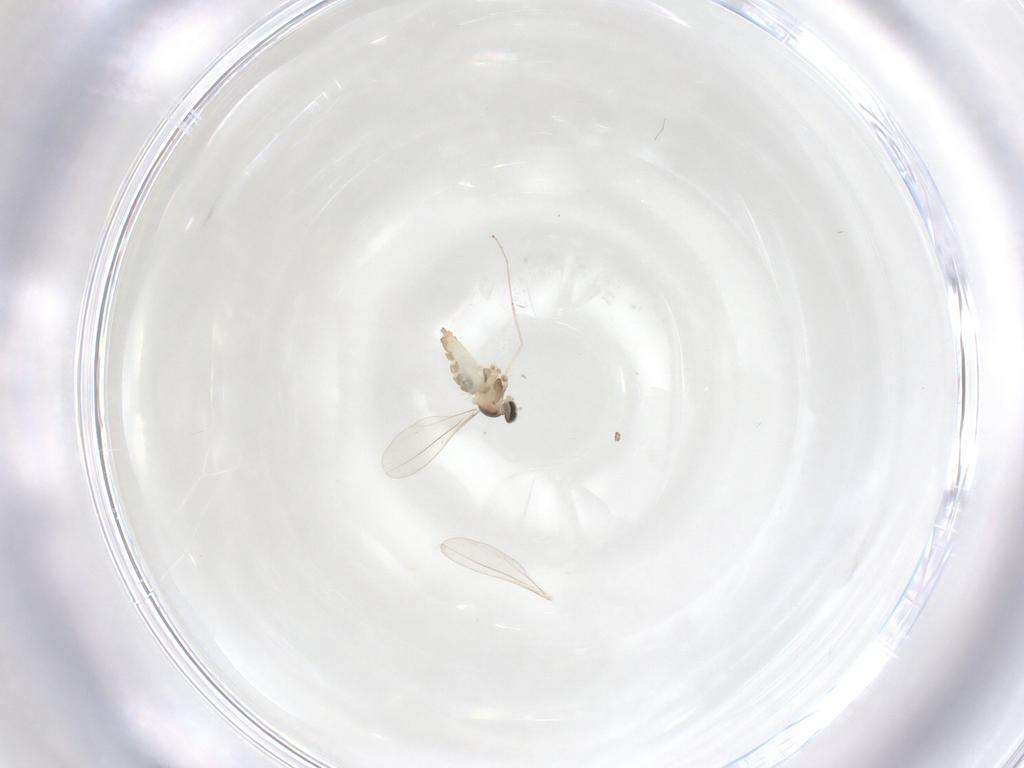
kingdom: Animalia
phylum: Arthropoda
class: Insecta
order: Diptera
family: Cecidomyiidae
